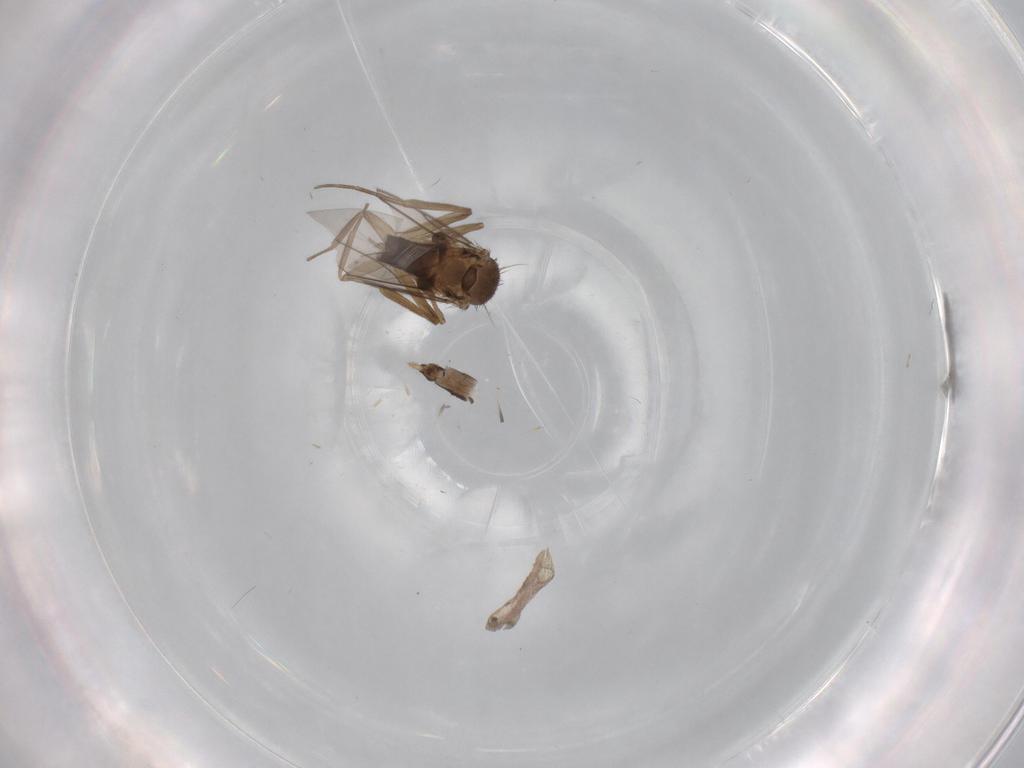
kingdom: Animalia
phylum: Arthropoda
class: Insecta
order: Diptera
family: Phoridae
